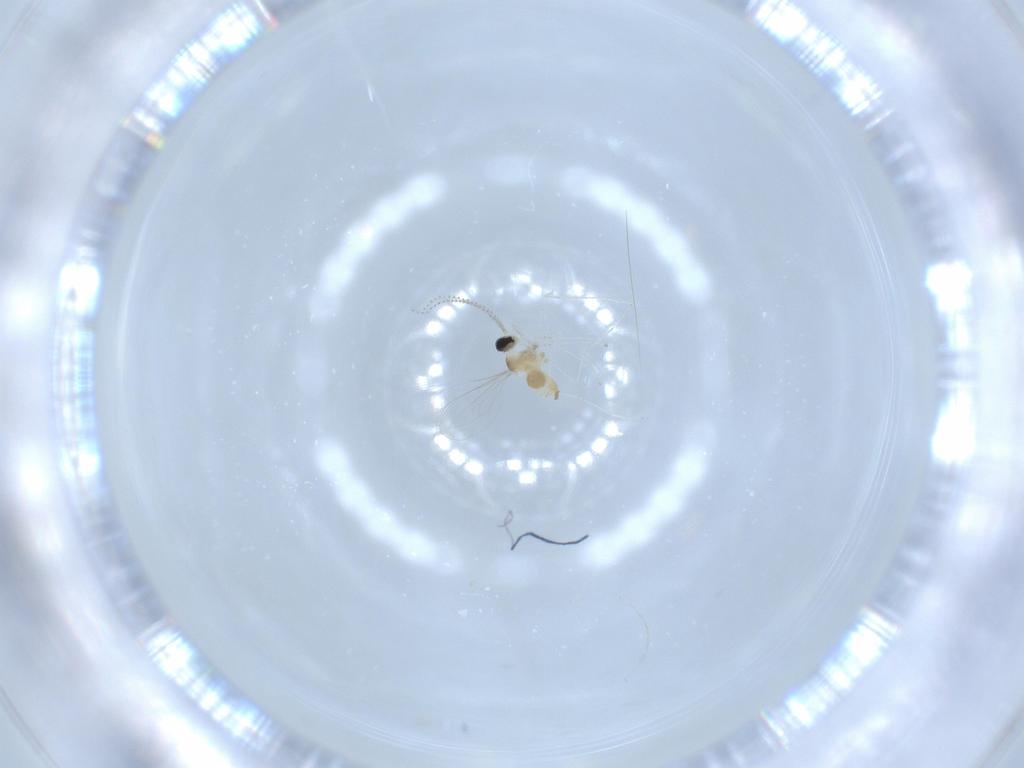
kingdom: Animalia
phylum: Arthropoda
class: Insecta
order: Diptera
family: Cecidomyiidae
